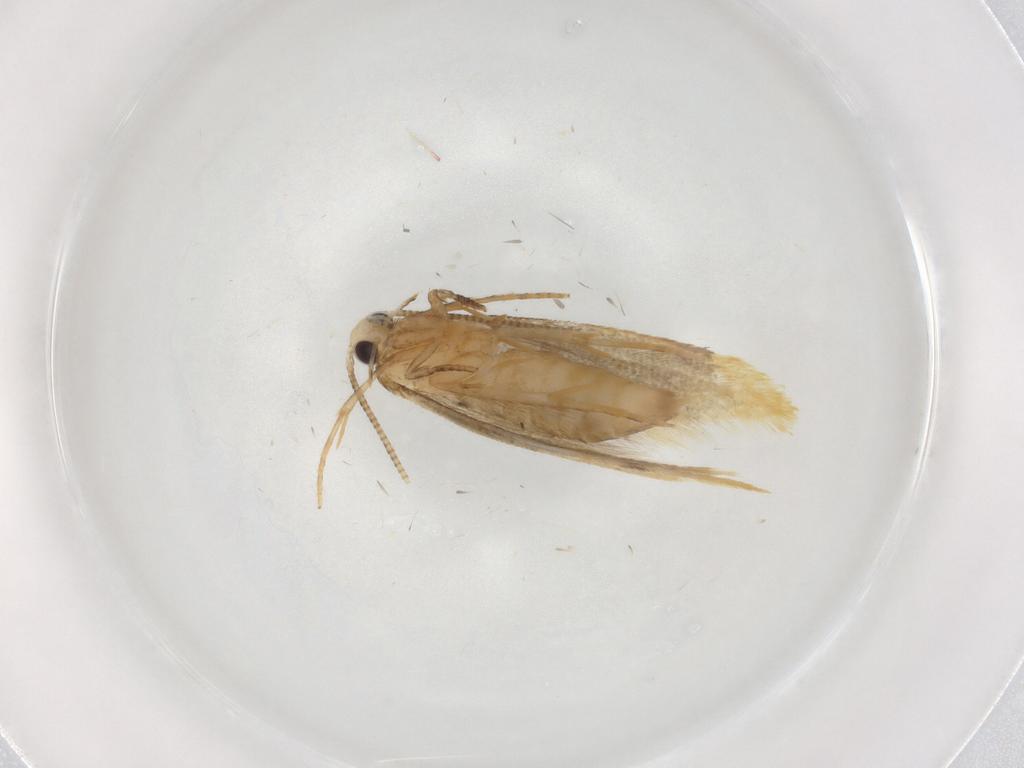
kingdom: Animalia
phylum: Arthropoda
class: Insecta
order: Lepidoptera
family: Tineidae
